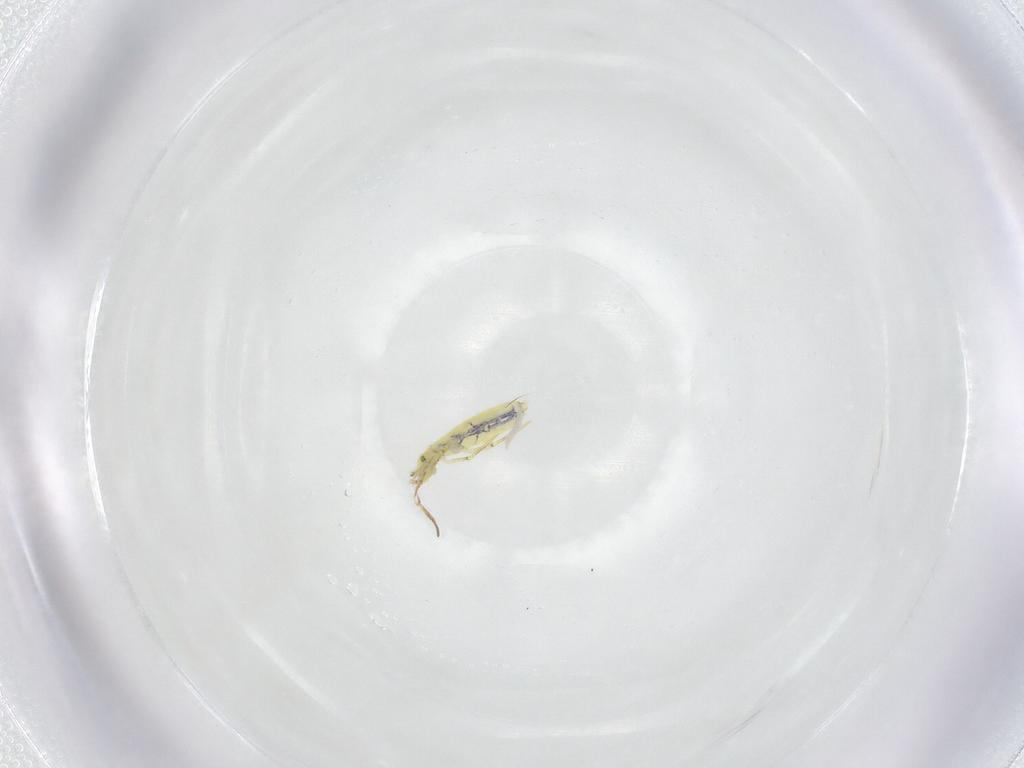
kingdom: Animalia
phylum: Arthropoda
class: Collembola
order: Entomobryomorpha
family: Entomobryidae
